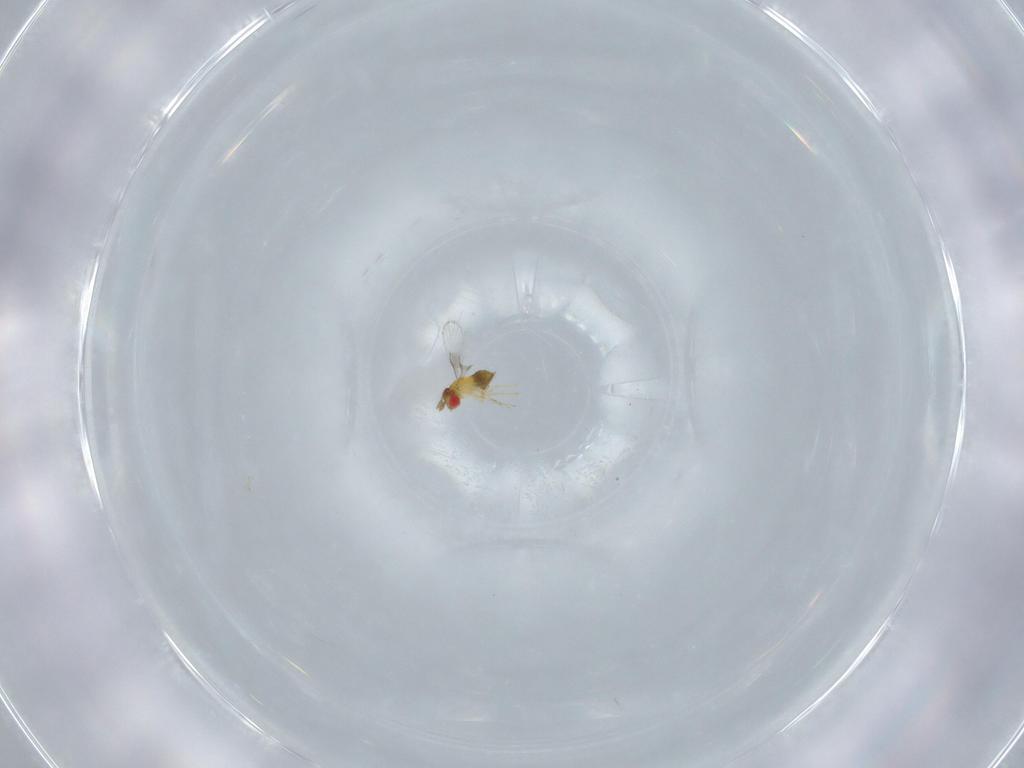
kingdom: Animalia
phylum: Arthropoda
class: Insecta
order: Hymenoptera
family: Trichogrammatidae
